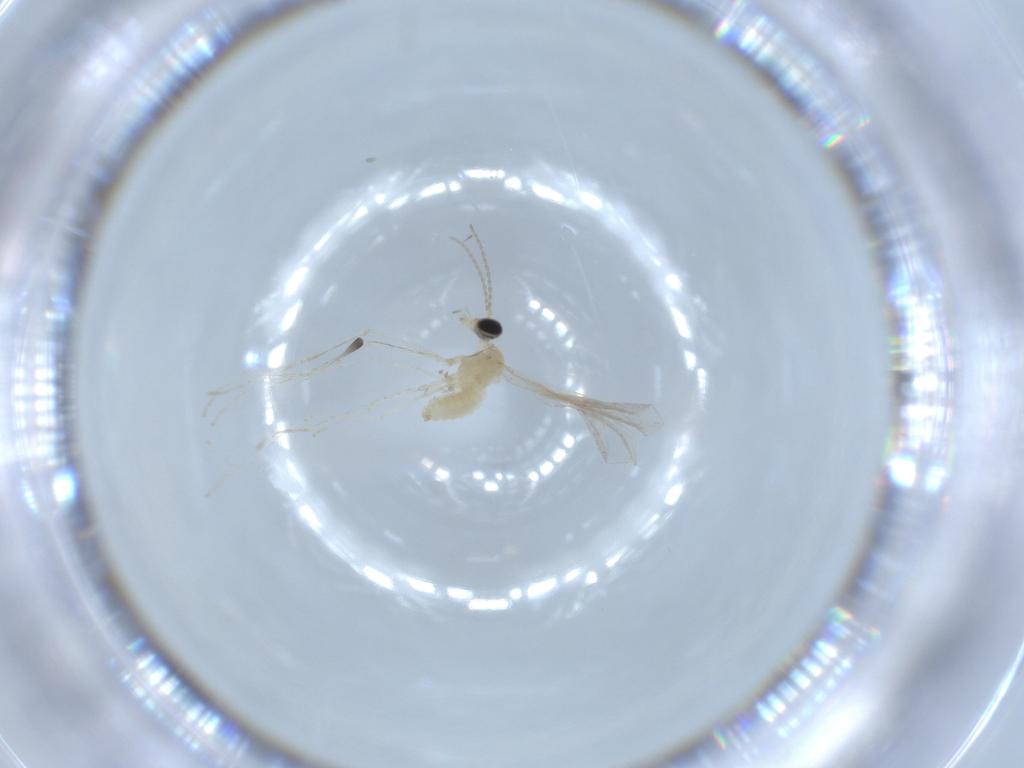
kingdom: Animalia
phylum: Arthropoda
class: Insecta
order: Diptera
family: Cecidomyiidae
